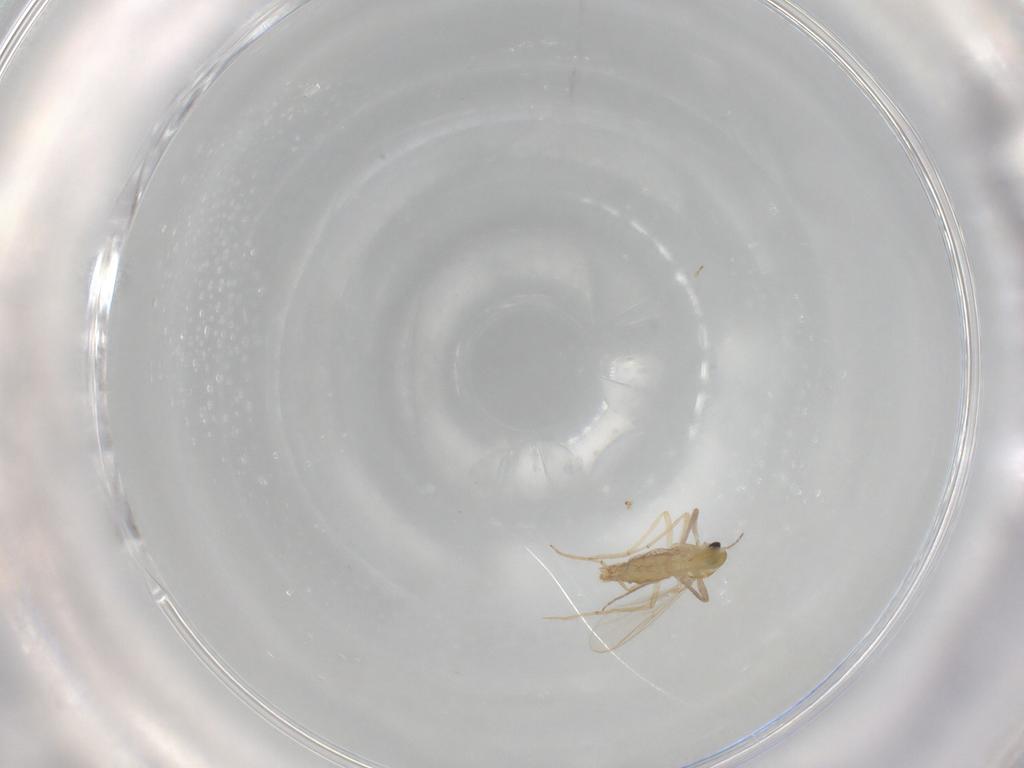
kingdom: Animalia
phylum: Arthropoda
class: Insecta
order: Diptera
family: Chironomidae
